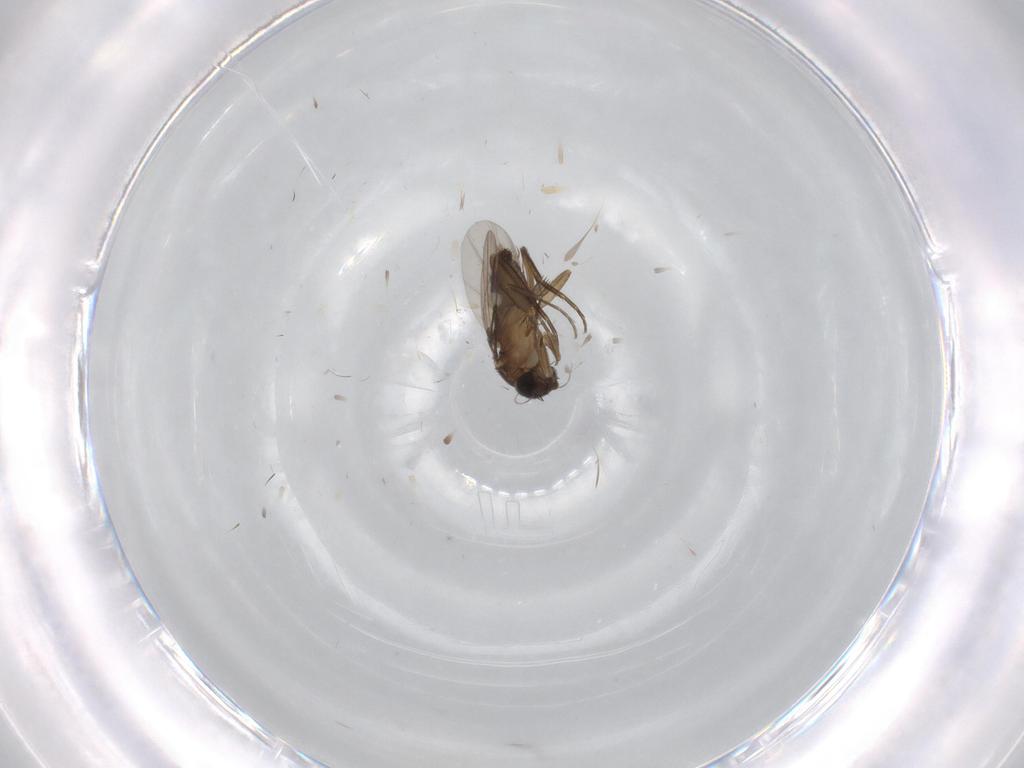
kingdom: Animalia
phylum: Arthropoda
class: Insecta
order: Diptera
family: Phoridae
